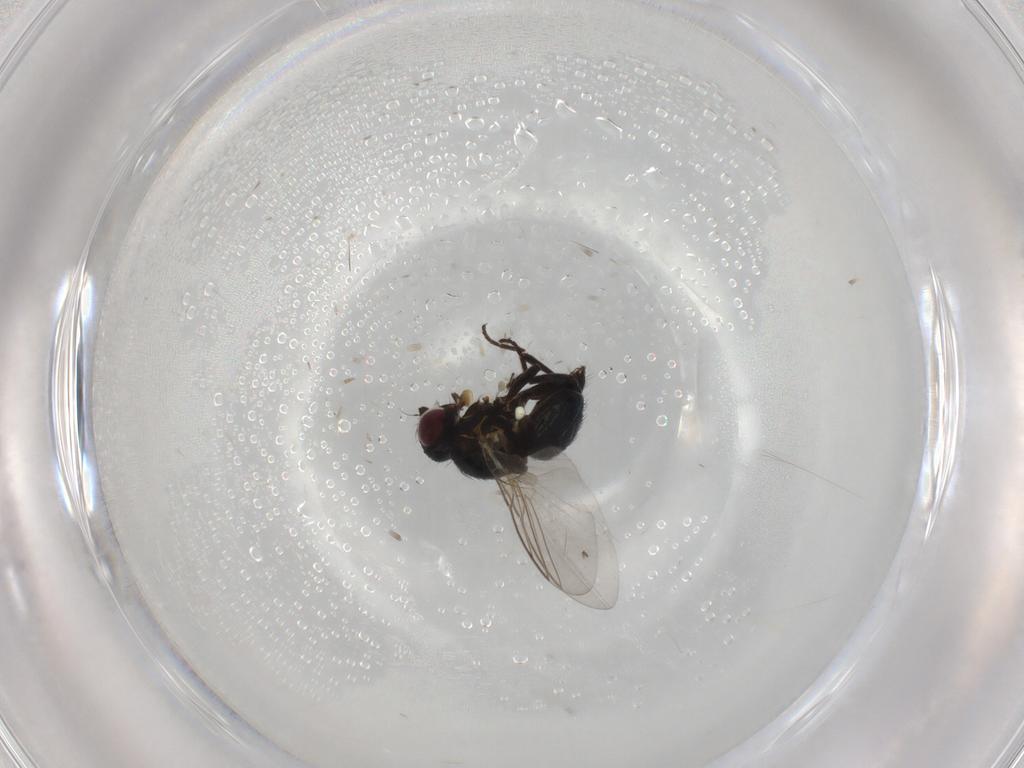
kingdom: Animalia
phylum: Arthropoda
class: Insecta
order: Diptera
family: Agromyzidae
